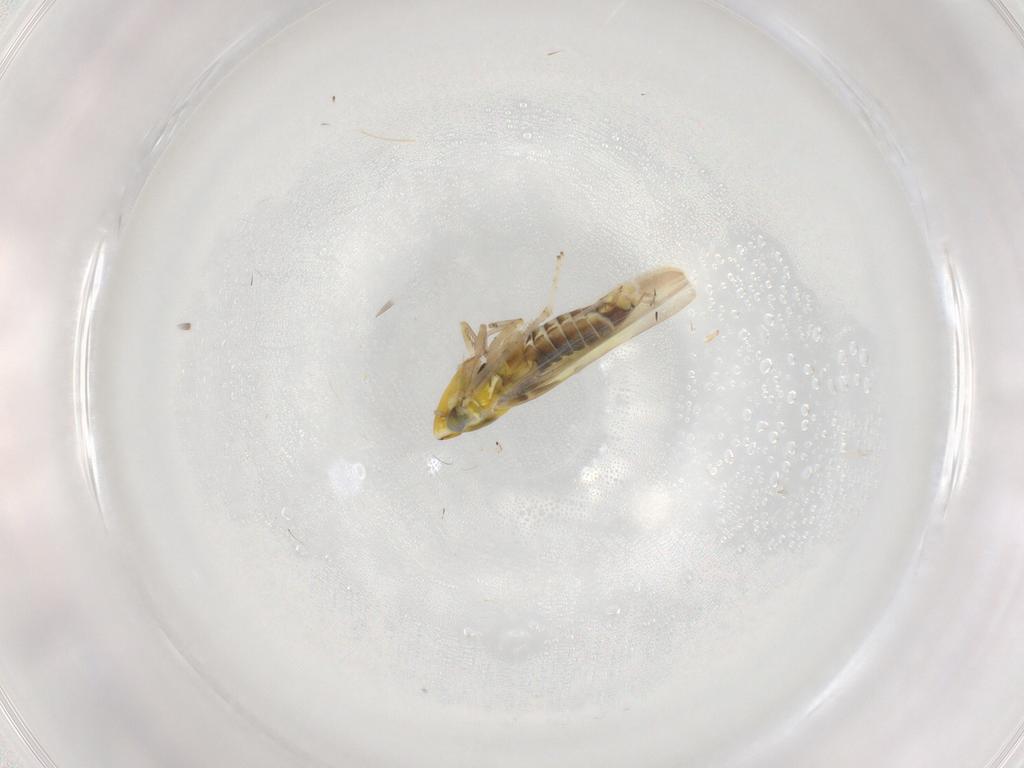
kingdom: Animalia
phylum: Arthropoda
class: Insecta
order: Hemiptera
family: Cicadellidae
